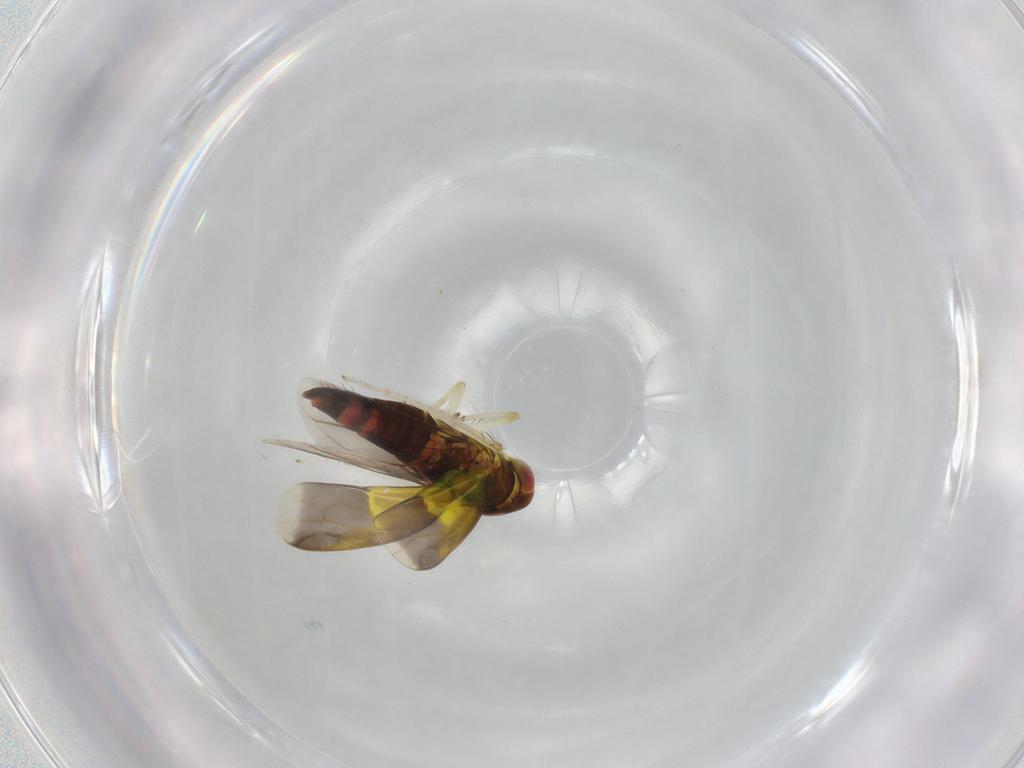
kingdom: Animalia
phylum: Arthropoda
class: Insecta
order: Hemiptera
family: Cicadellidae
